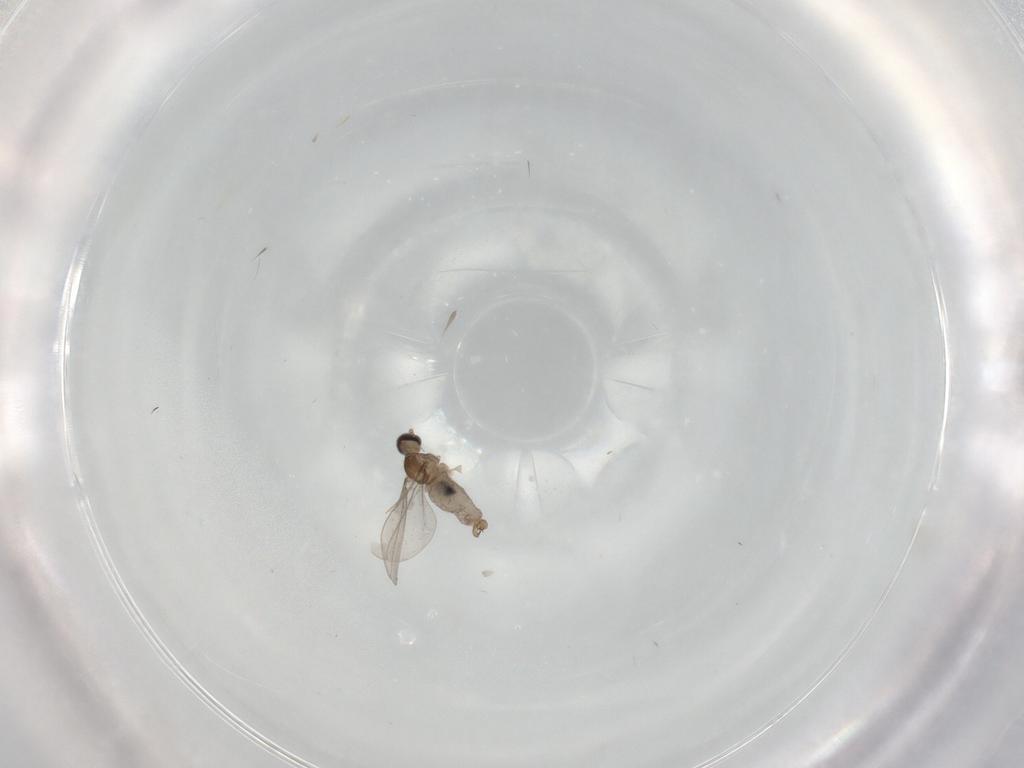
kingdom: Animalia
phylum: Arthropoda
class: Insecta
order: Diptera
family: Cecidomyiidae
